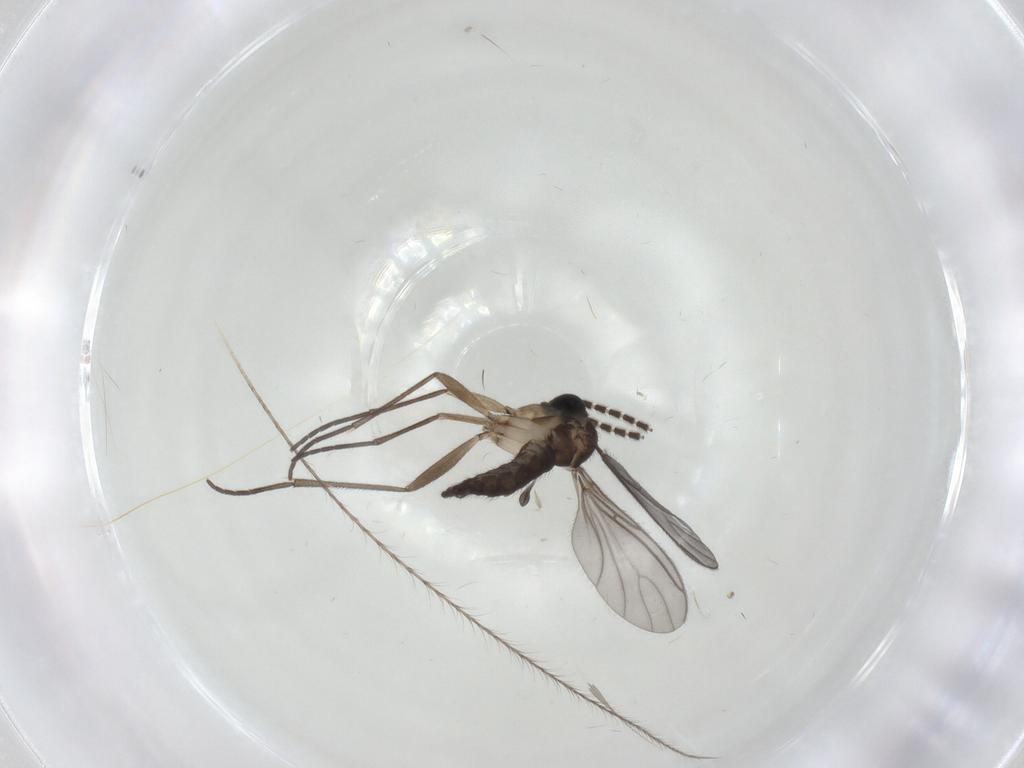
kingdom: Animalia
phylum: Arthropoda
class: Insecta
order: Diptera
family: Sciaridae
